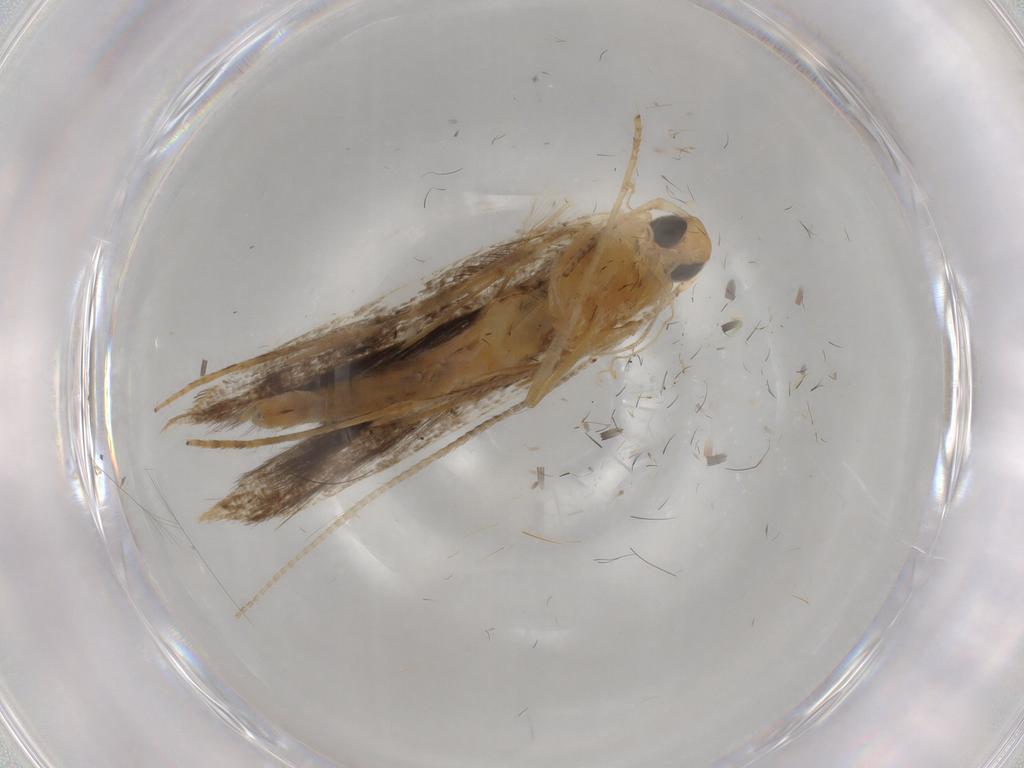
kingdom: Animalia
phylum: Arthropoda
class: Insecta
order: Lepidoptera
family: Pterolonchidae
